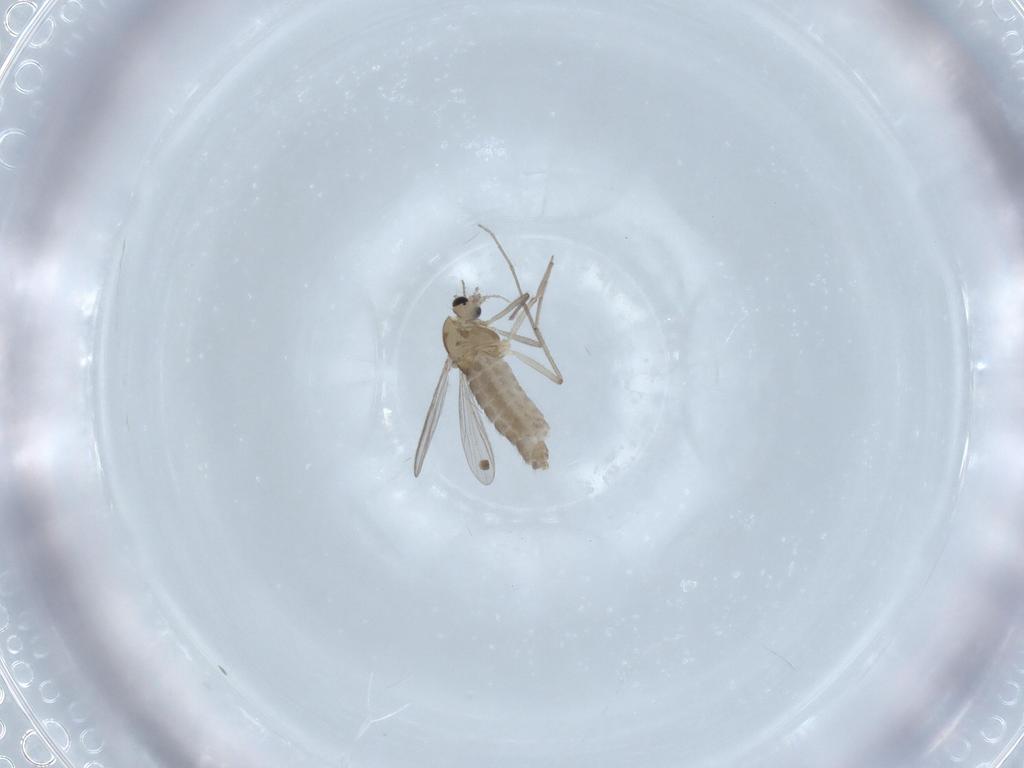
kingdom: Animalia
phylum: Arthropoda
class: Insecta
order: Diptera
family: Chironomidae
